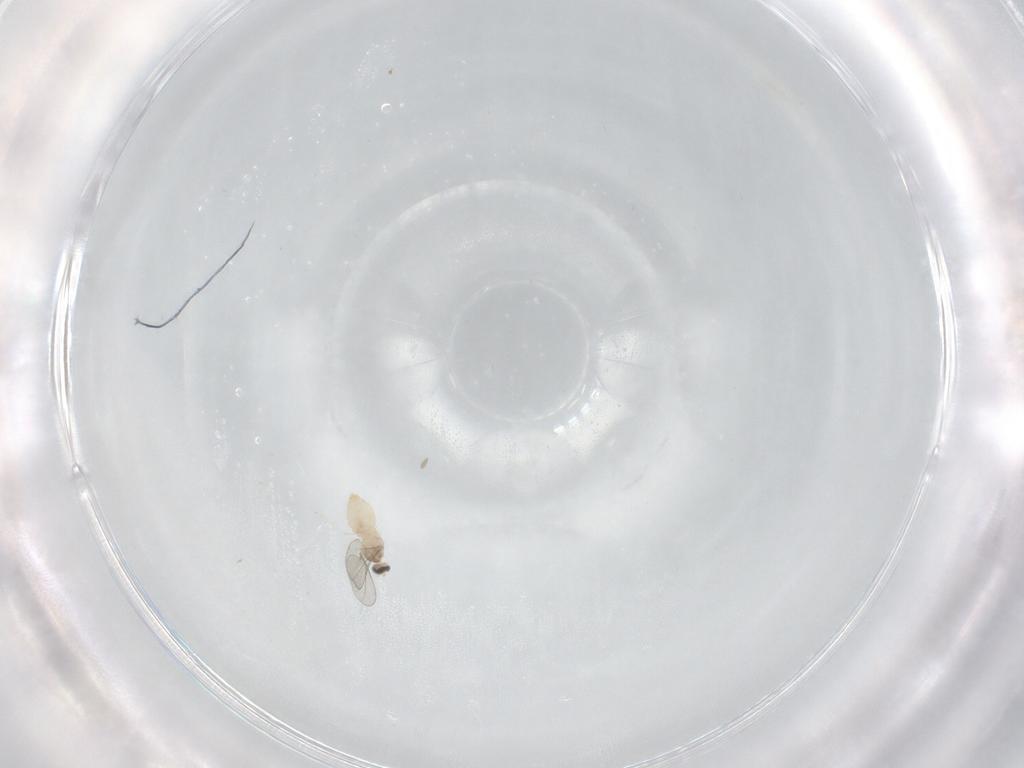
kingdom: Animalia
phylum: Arthropoda
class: Insecta
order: Diptera
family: Cecidomyiidae
